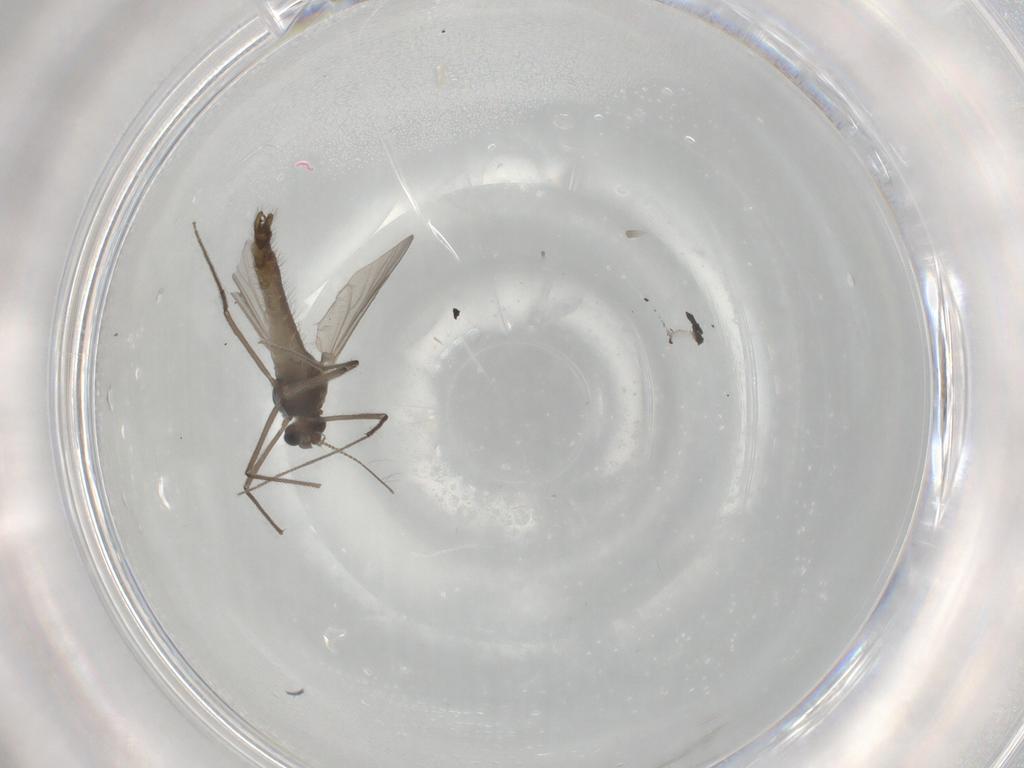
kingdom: Animalia
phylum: Arthropoda
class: Insecta
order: Diptera
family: Chironomidae
